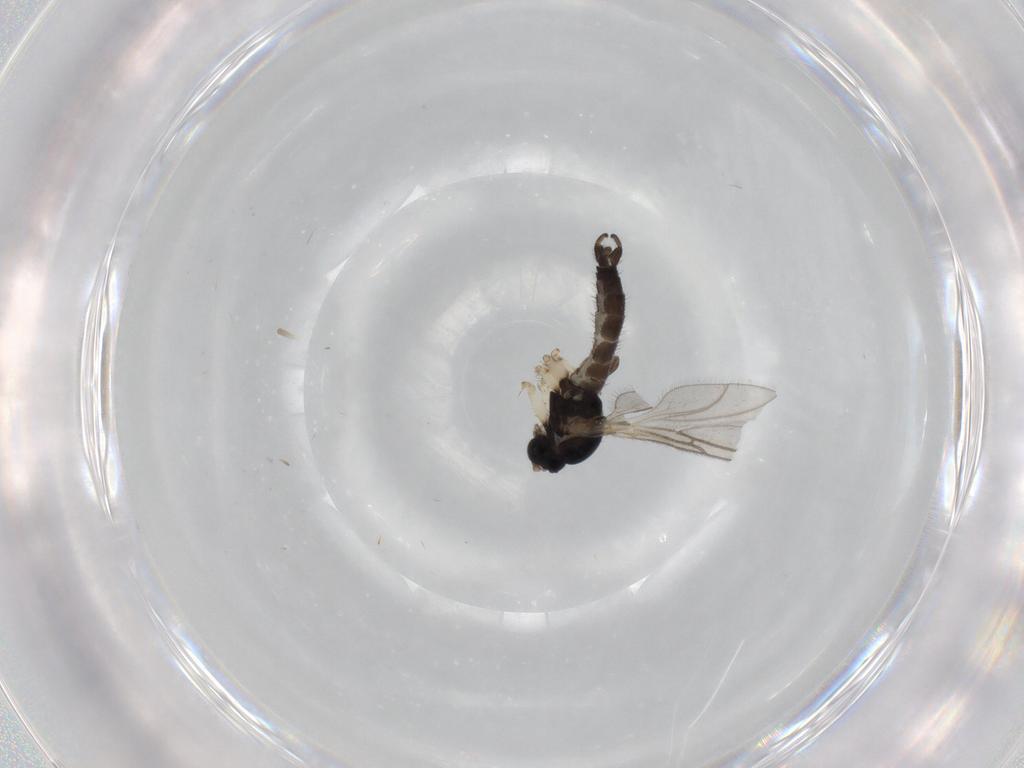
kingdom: Animalia
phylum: Arthropoda
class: Insecta
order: Diptera
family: Sciaridae
